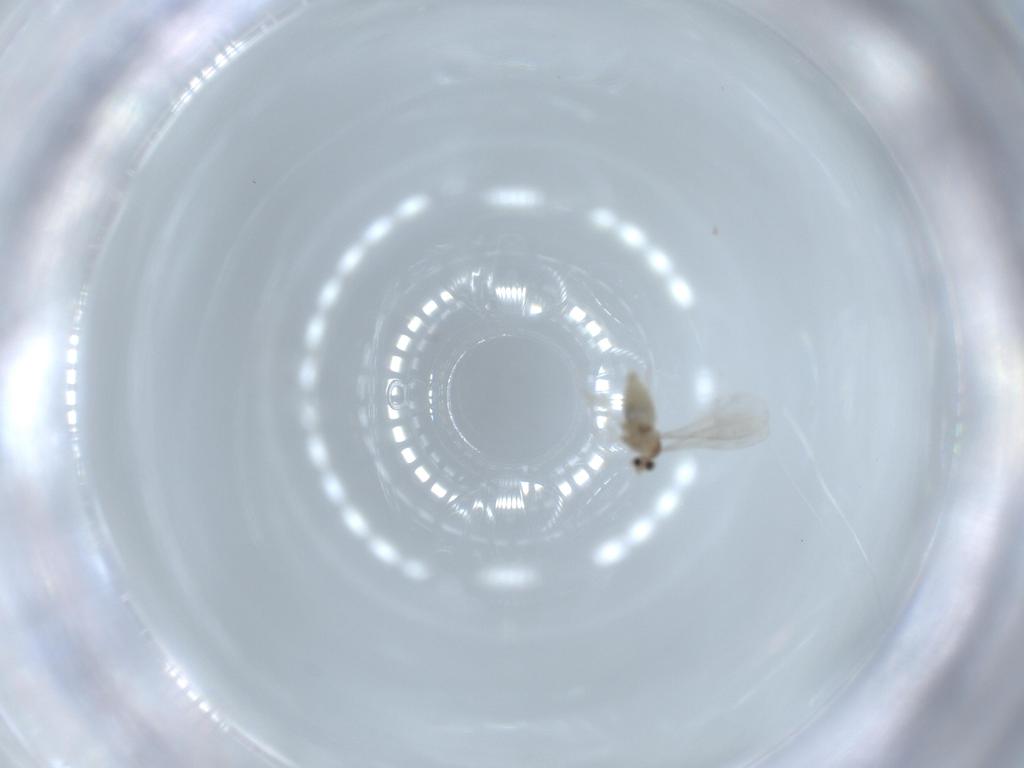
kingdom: Animalia
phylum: Arthropoda
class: Insecta
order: Diptera
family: Cecidomyiidae
